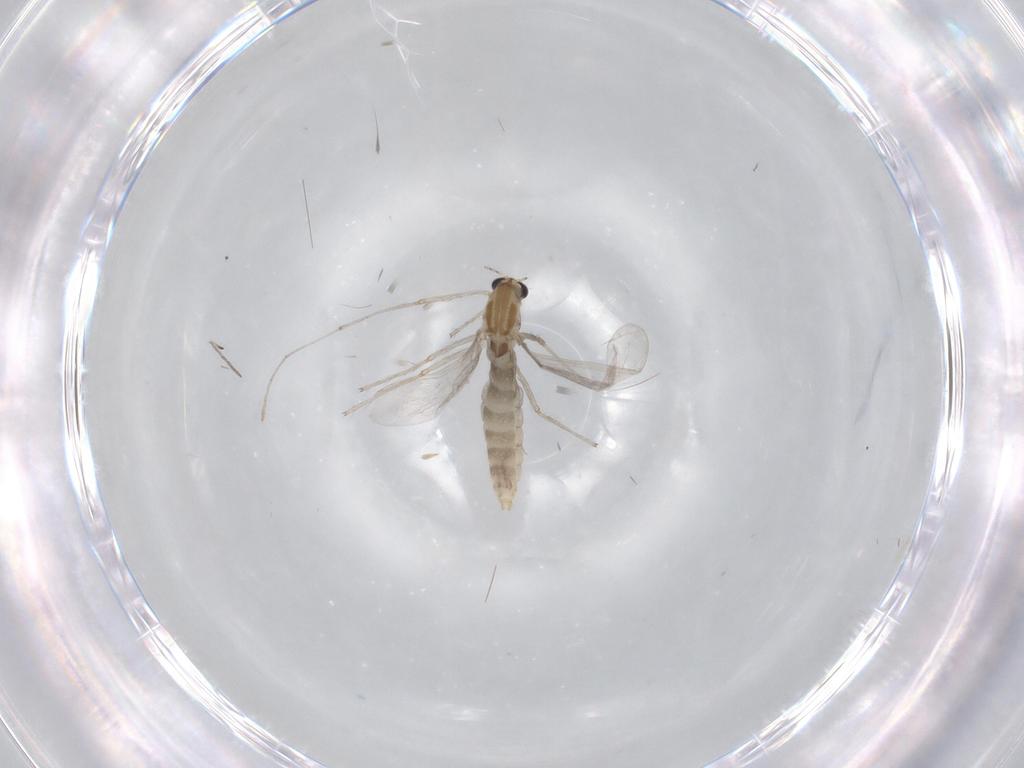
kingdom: Animalia
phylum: Arthropoda
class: Insecta
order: Diptera
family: Chironomidae
